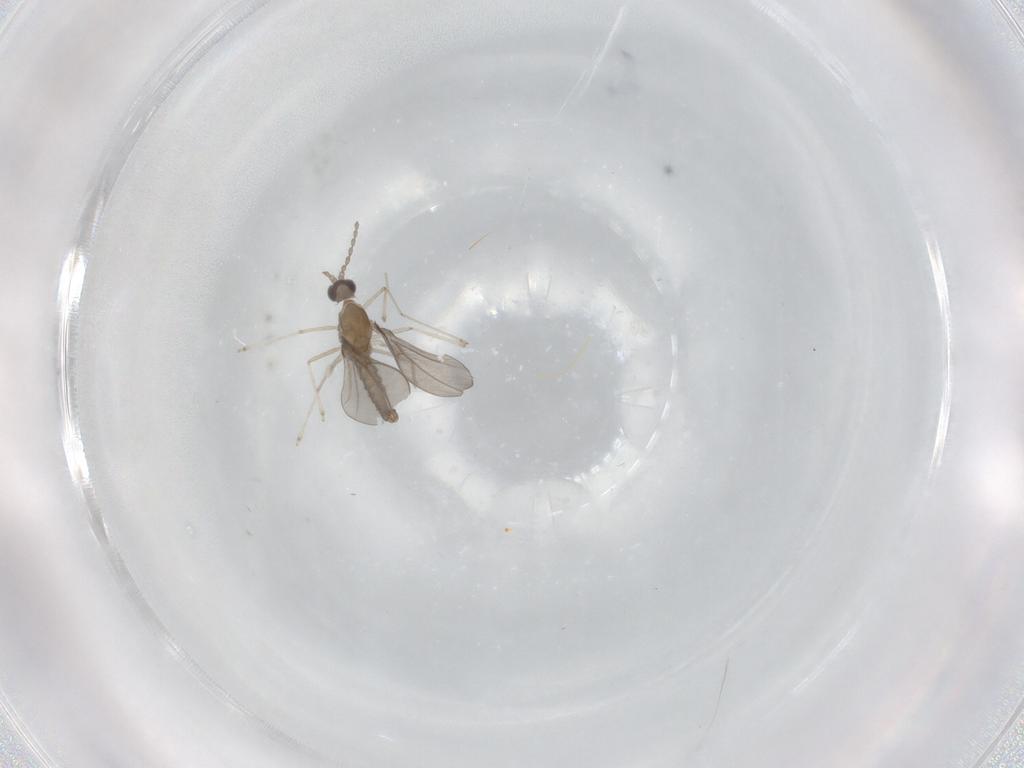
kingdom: Animalia
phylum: Arthropoda
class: Insecta
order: Diptera
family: Cecidomyiidae
